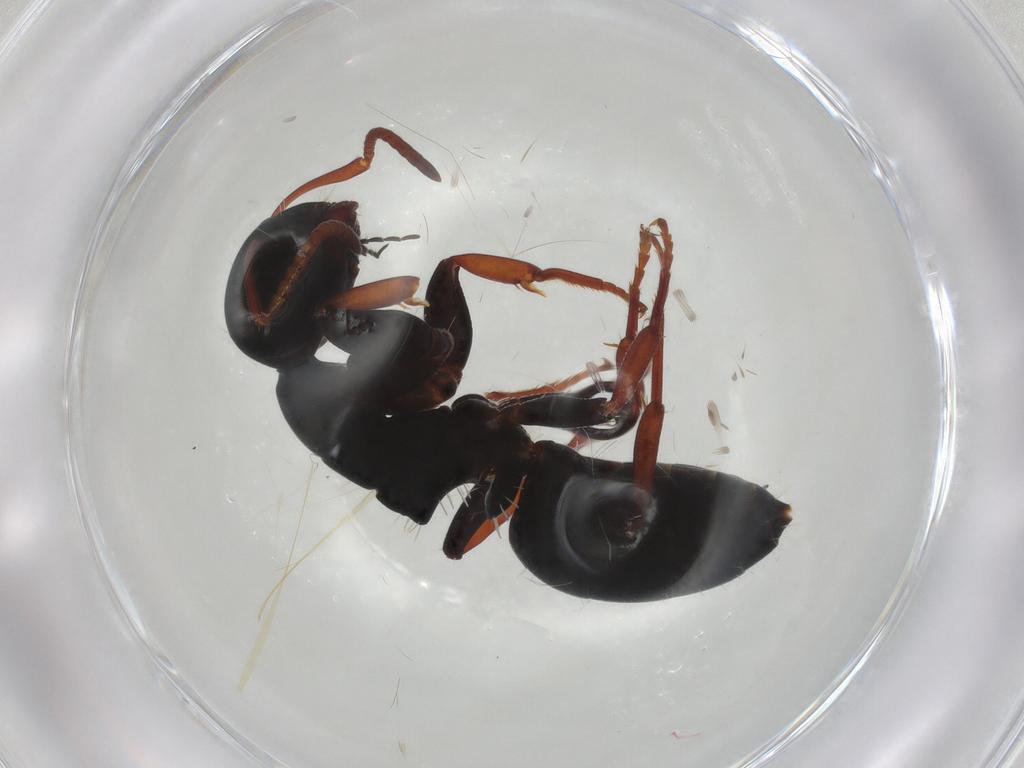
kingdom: Animalia
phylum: Arthropoda
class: Insecta
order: Hymenoptera
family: Formicidae
